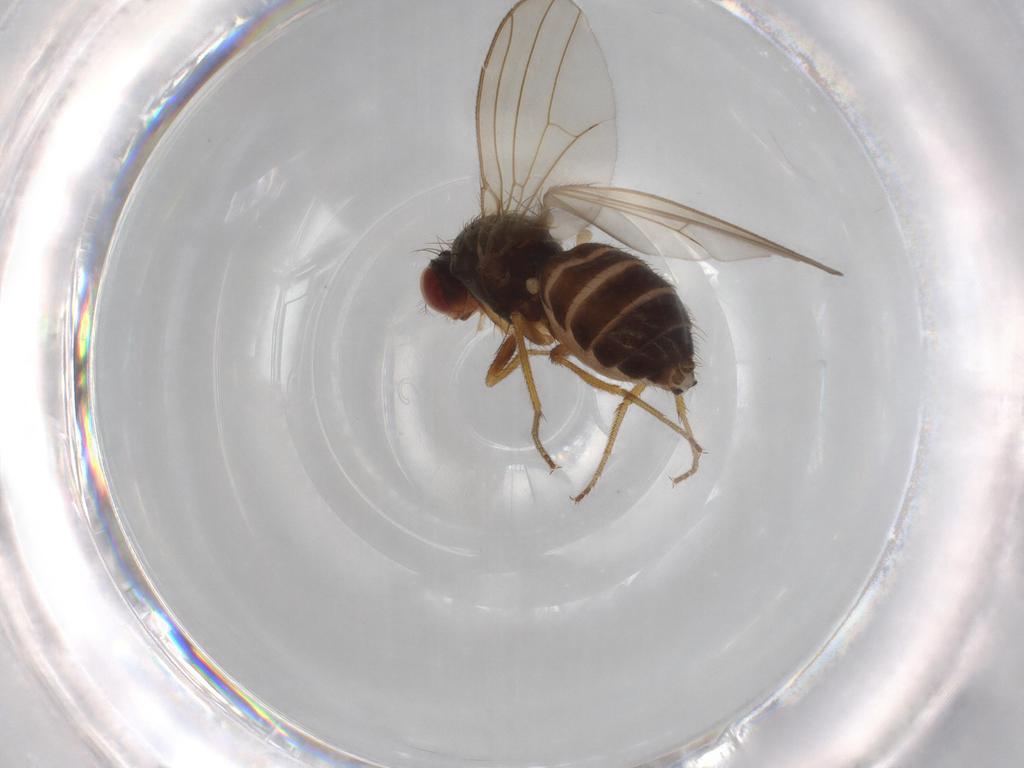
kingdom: Animalia
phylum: Arthropoda
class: Insecta
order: Diptera
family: Drosophilidae
